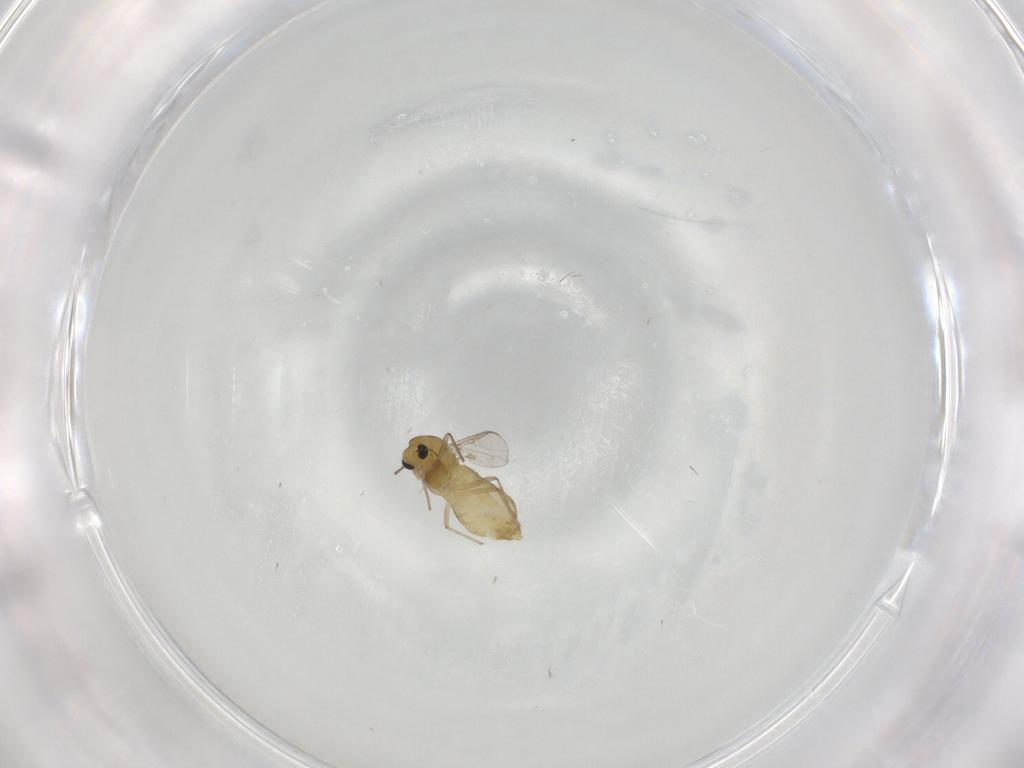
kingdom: Animalia
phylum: Arthropoda
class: Insecta
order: Diptera
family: Chironomidae
